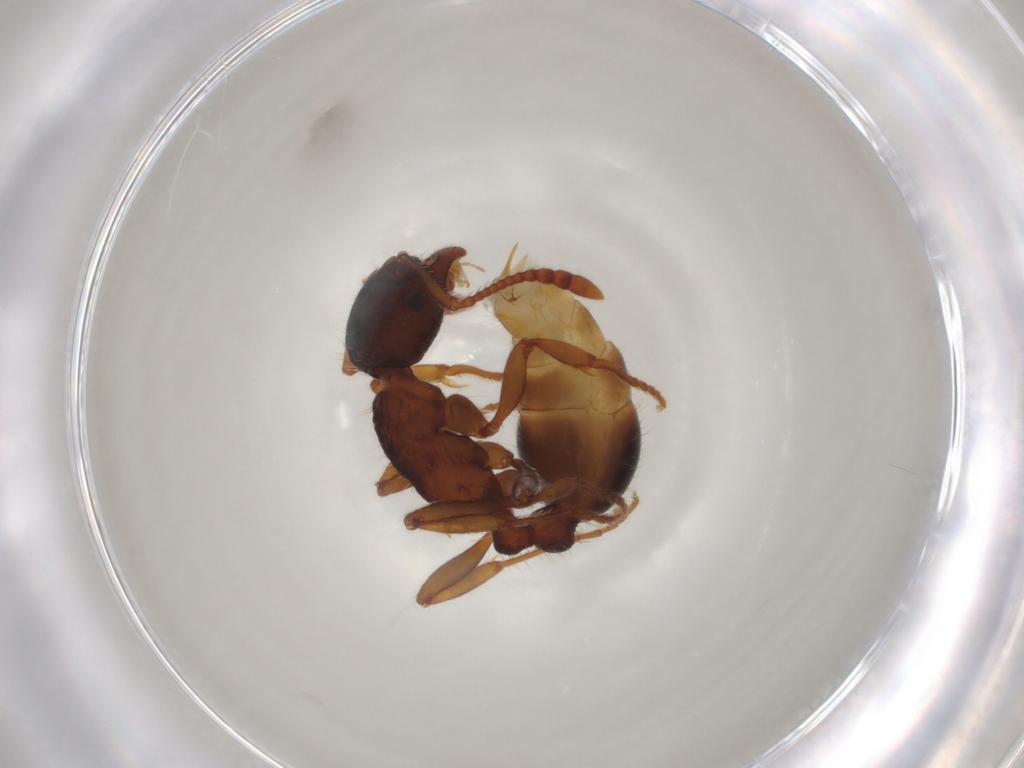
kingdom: Animalia
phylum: Arthropoda
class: Insecta
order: Hymenoptera
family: Formicidae
